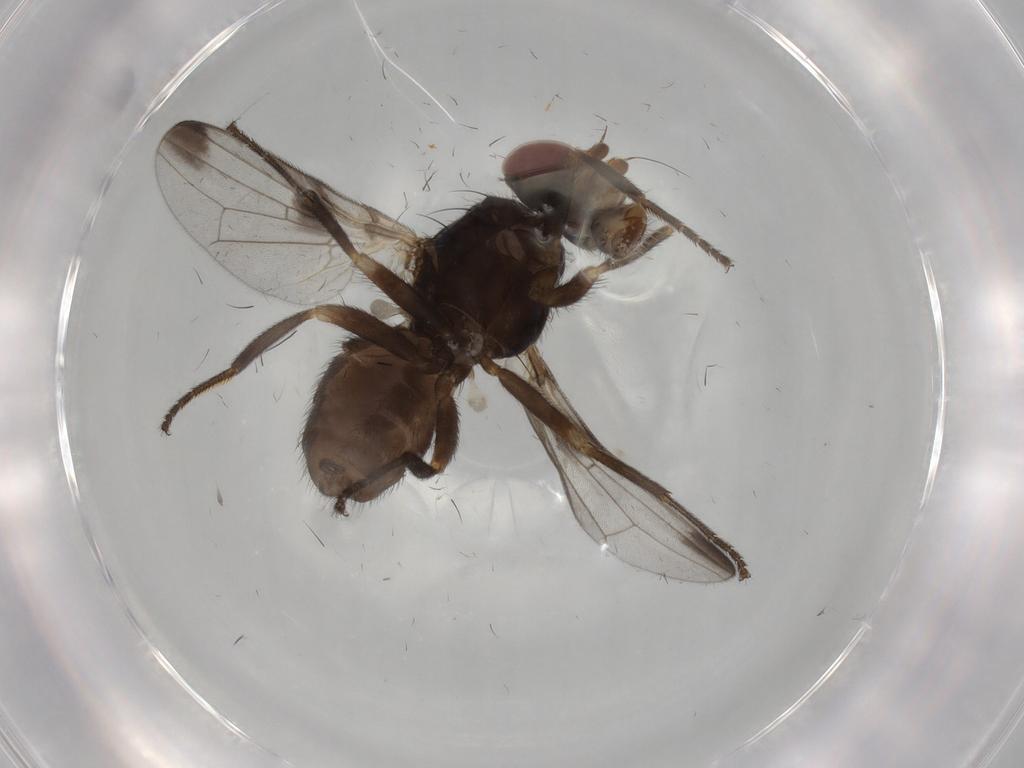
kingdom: Animalia
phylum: Arthropoda
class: Insecta
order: Diptera
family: Ulidiidae
